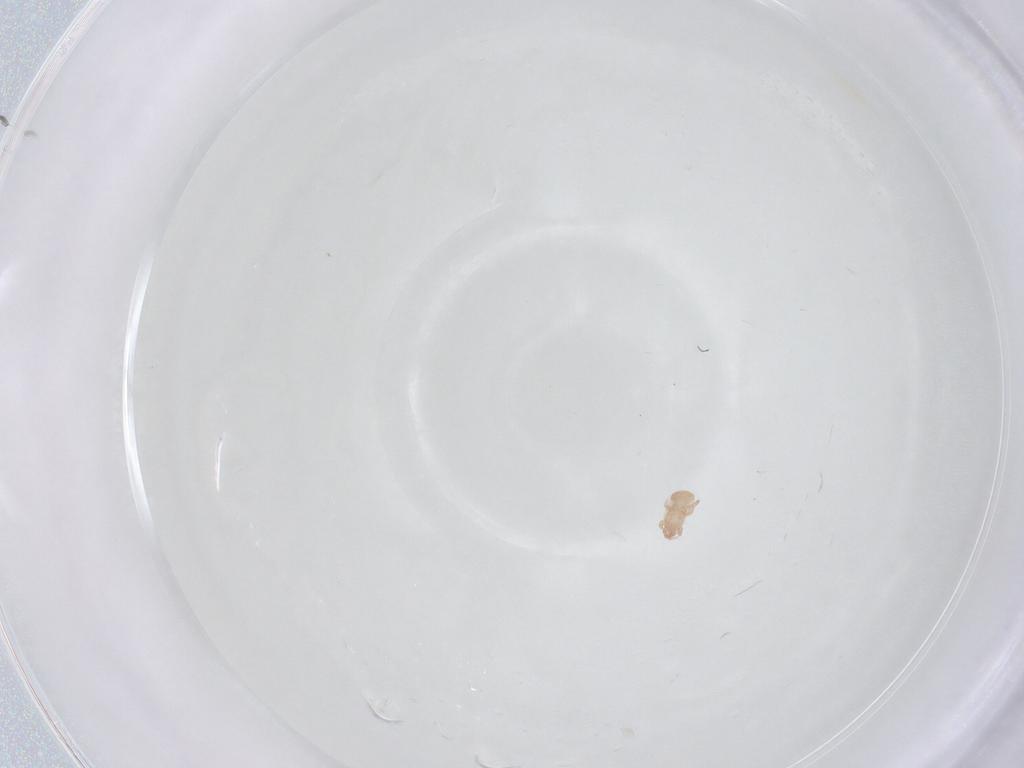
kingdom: Animalia
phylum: Arthropoda
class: Arachnida
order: Mesostigmata
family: Digamasellidae
